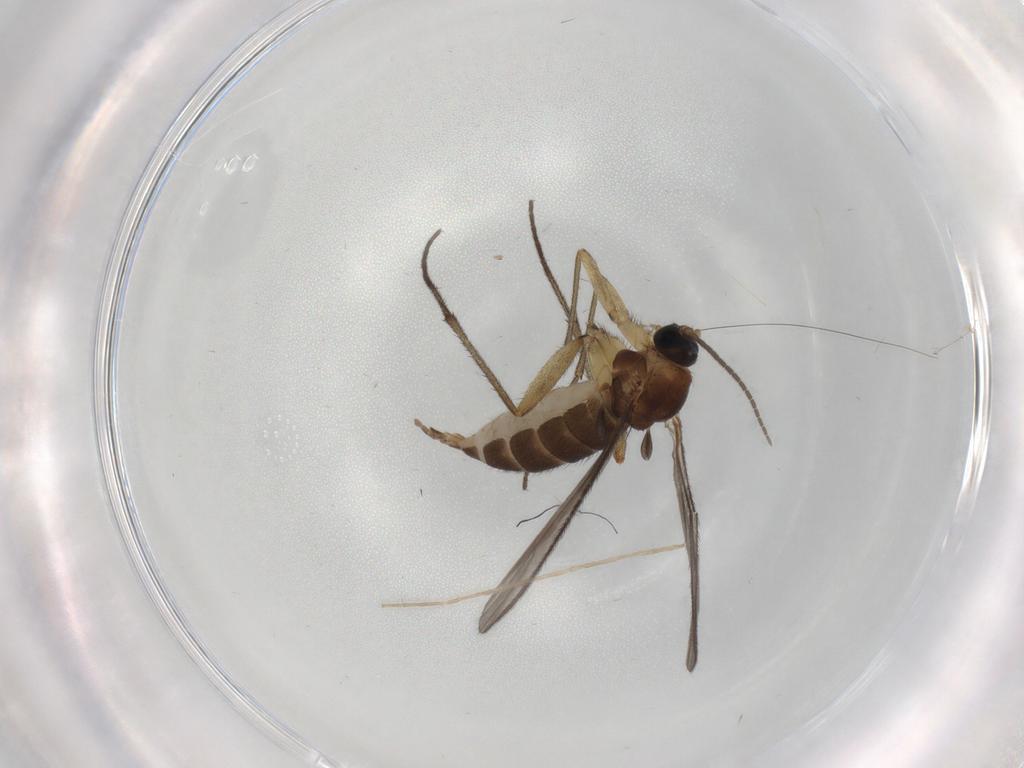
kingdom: Animalia
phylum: Arthropoda
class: Insecta
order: Diptera
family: Sciaridae
